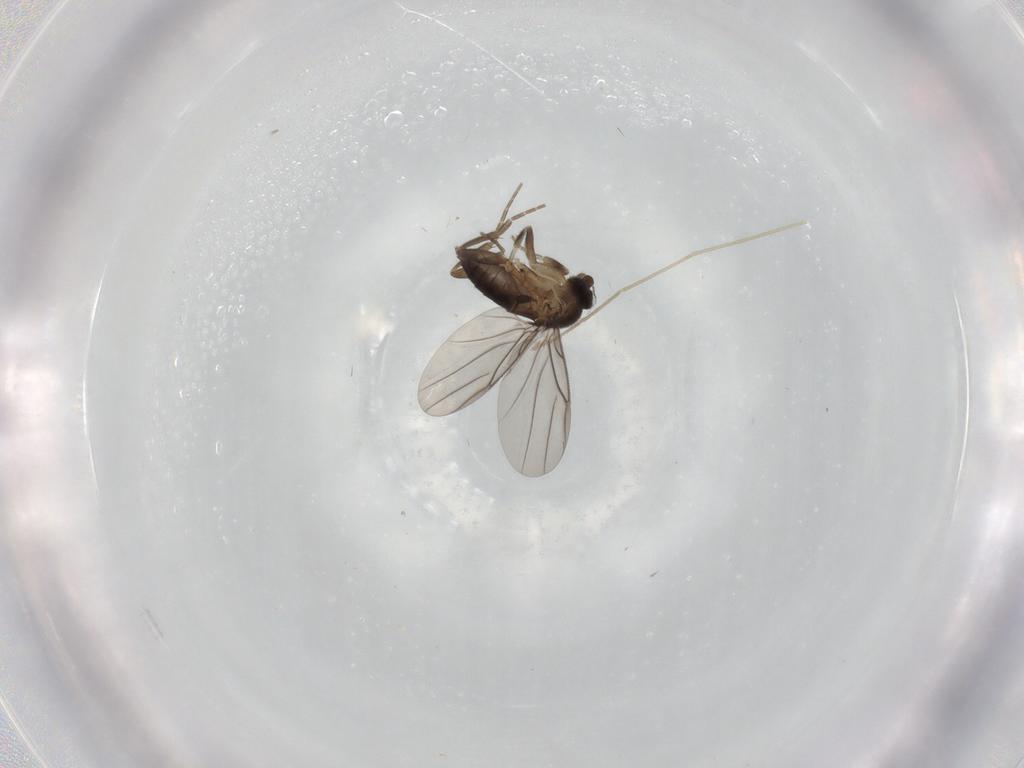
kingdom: Animalia
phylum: Arthropoda
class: Insecta
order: Diptera
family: Chironomidae
